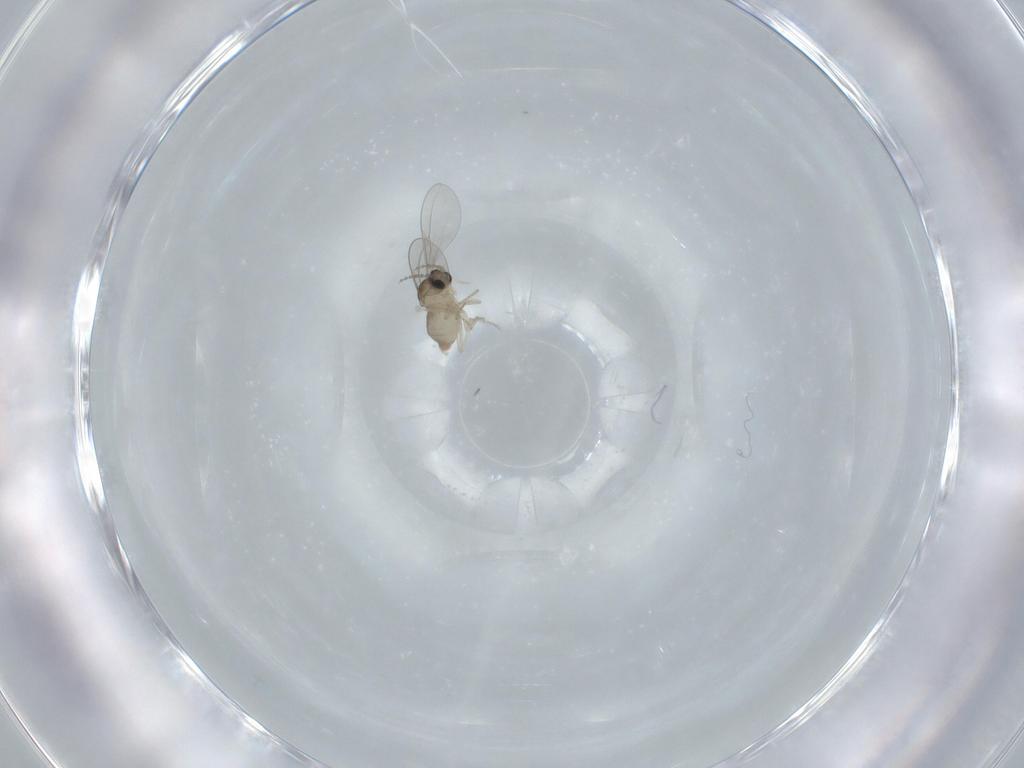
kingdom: Animalia
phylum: Arthropoda
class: Insecta
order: Diptera
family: Cecidomyiidae
